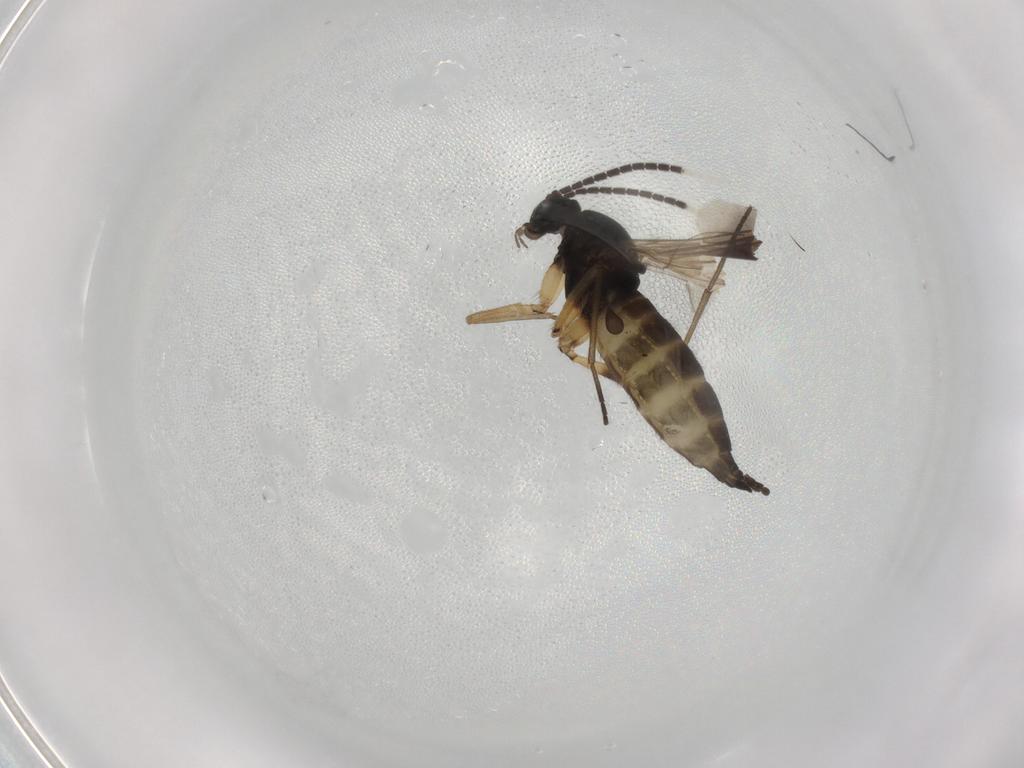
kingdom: Animalia
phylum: Arthropoda
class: Insecta
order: Diptera
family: Sciaridae
